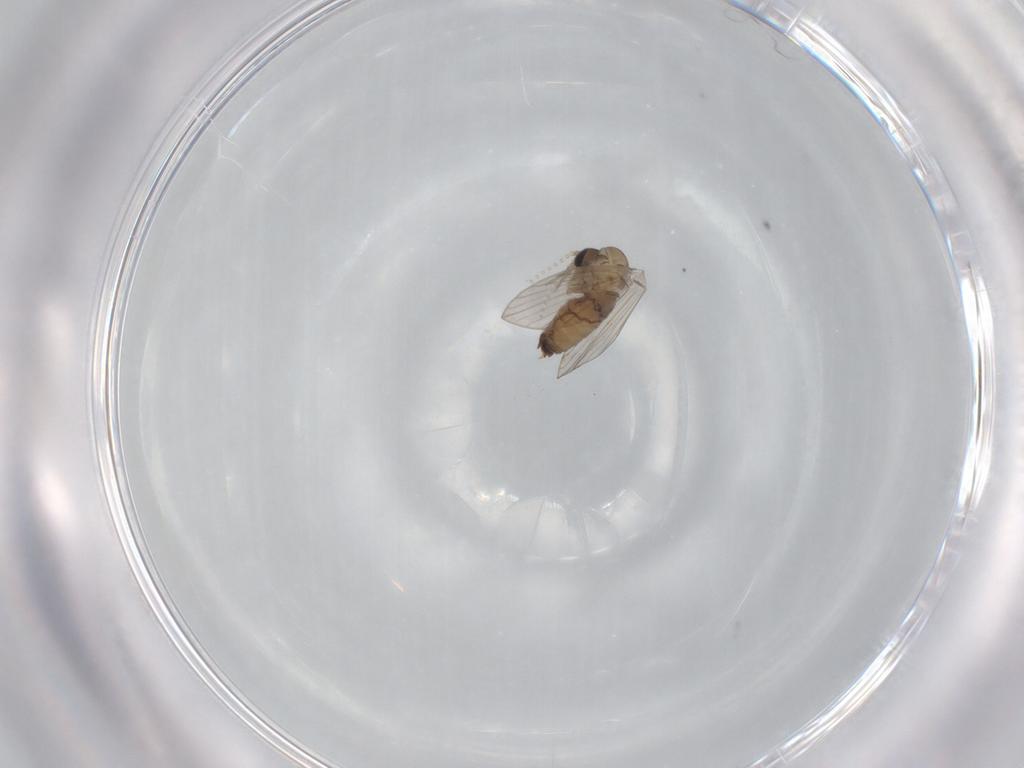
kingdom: Animalia
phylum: Arthropoda
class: Insecta
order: Diptera
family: Psychodidae
